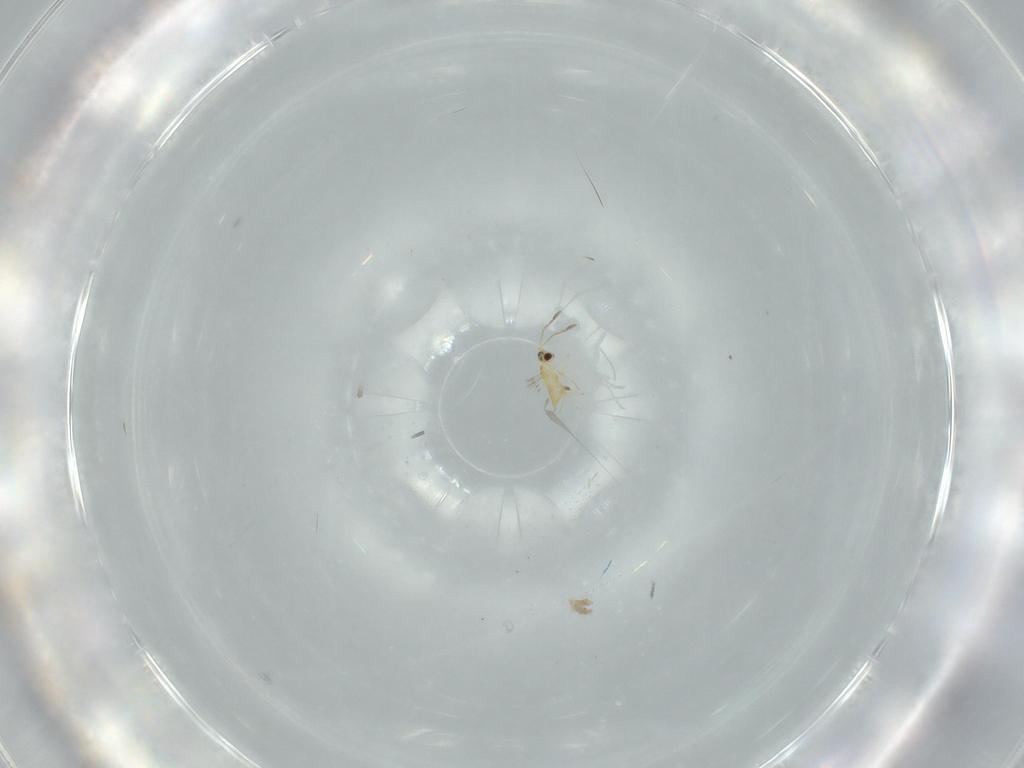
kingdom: Animalia
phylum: Arthropoda
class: Insecta
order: Hymenoptera
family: Mymaridae
